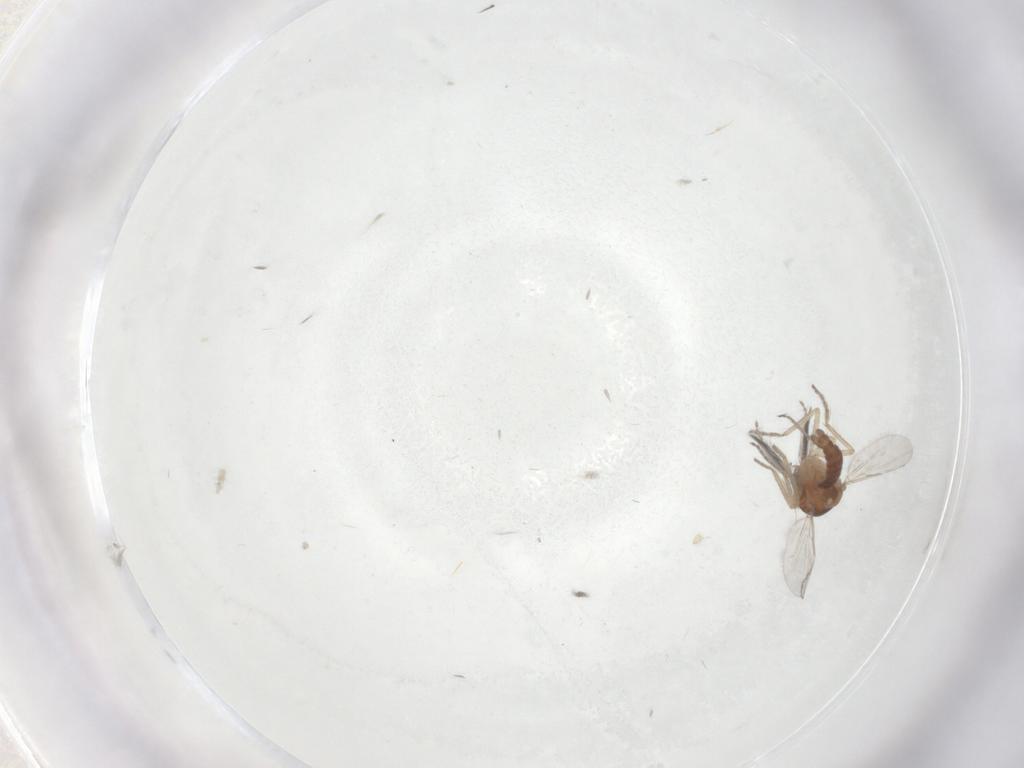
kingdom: Animalia
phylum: Arthropoda
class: Insecta
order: Diptera
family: Ceratopogonidae
